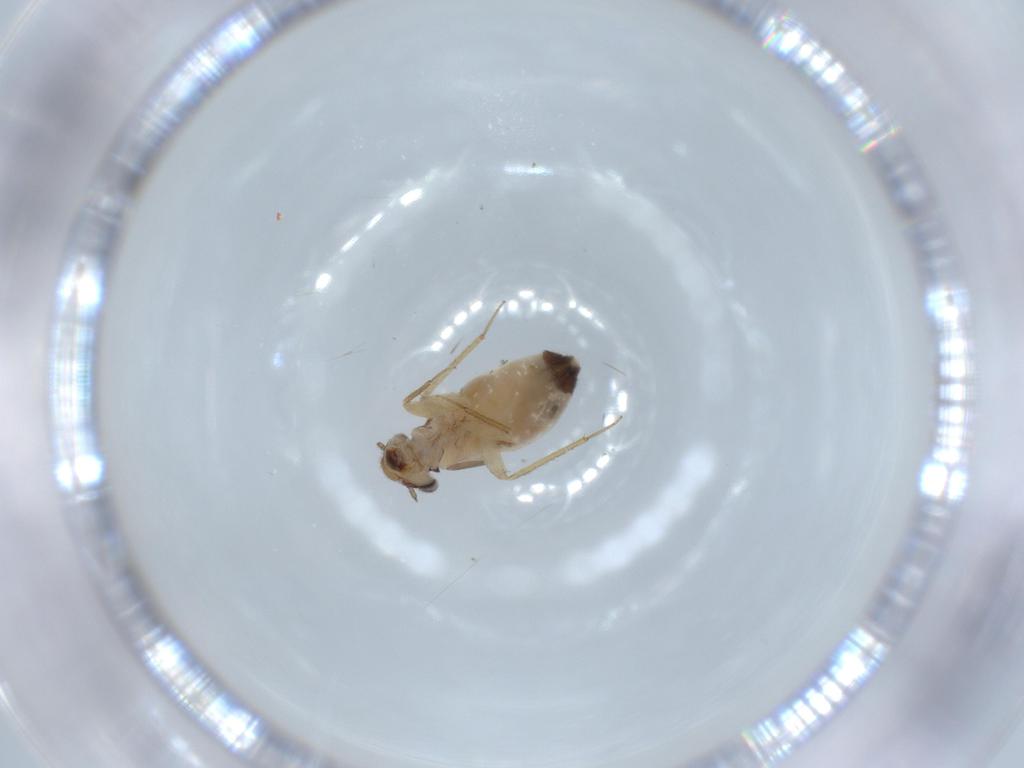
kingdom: Animalia
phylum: Arthropoda
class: Insecta
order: Psocodea
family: Lepidopsocidae
